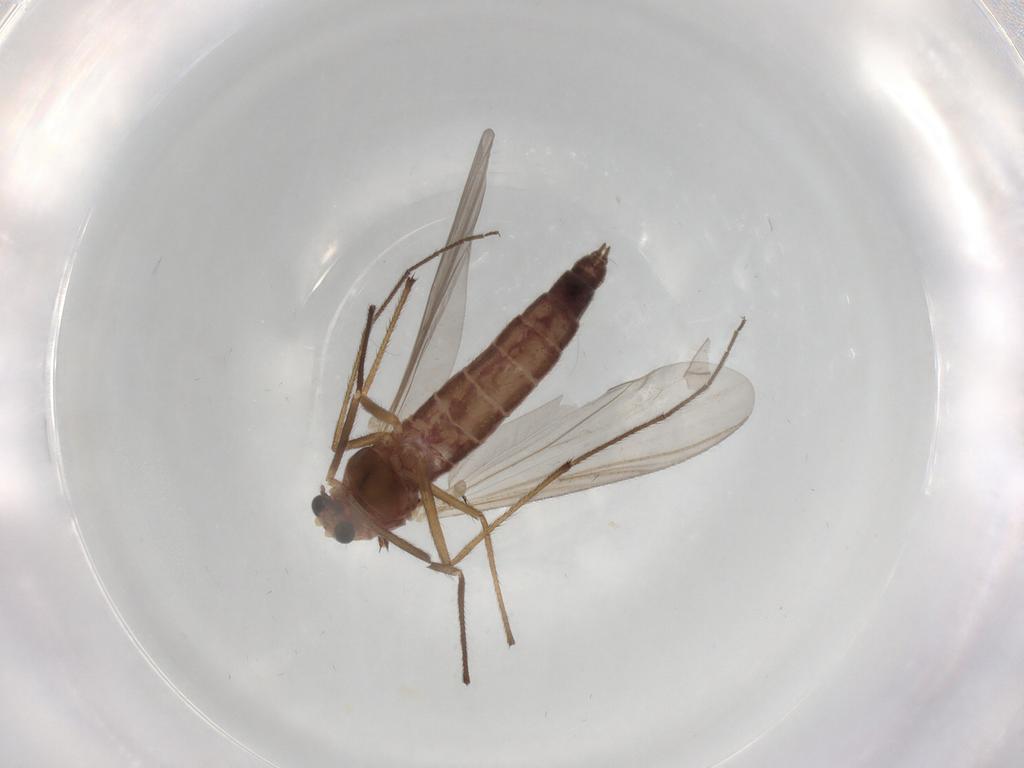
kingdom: Animalia
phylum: Arthropoda
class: Insecta
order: Diptera
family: Chironomidae
